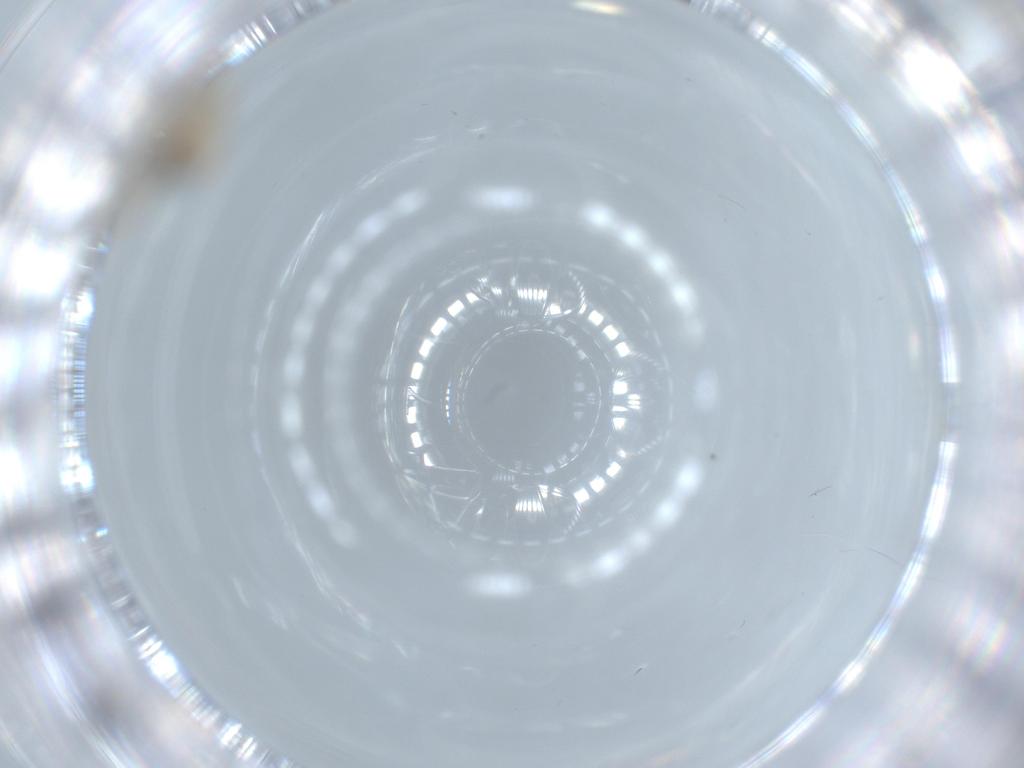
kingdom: Animalia
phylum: Arthropoda
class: Insecta
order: Diptera
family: Cecidomyiidae
